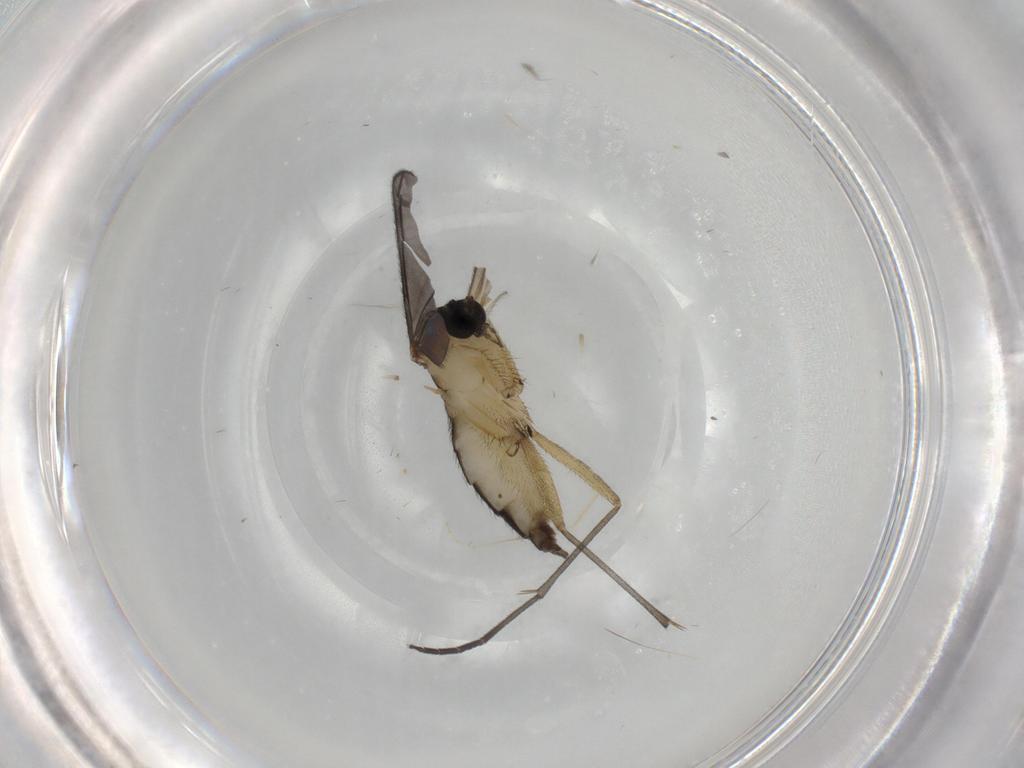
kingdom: Animalia
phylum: Arthropoda
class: Insecta
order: Diptera
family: Sciaridae
